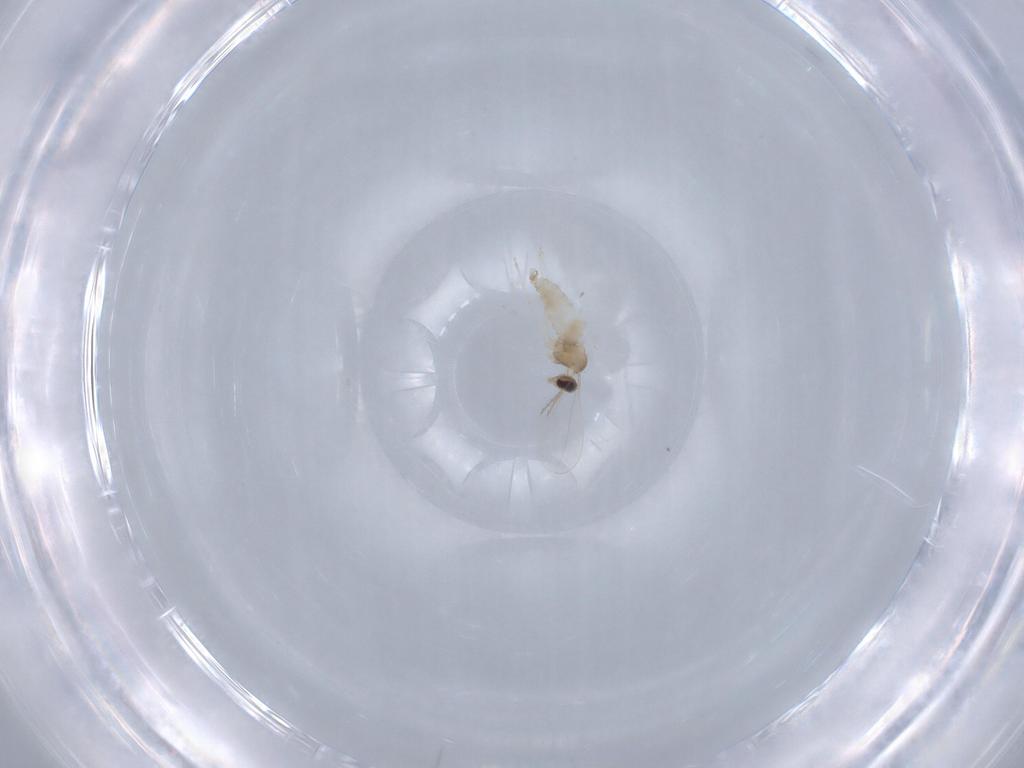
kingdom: Animalia
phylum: Arthropoda
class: Insecta
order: Diptera
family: Cecidomyiidae
